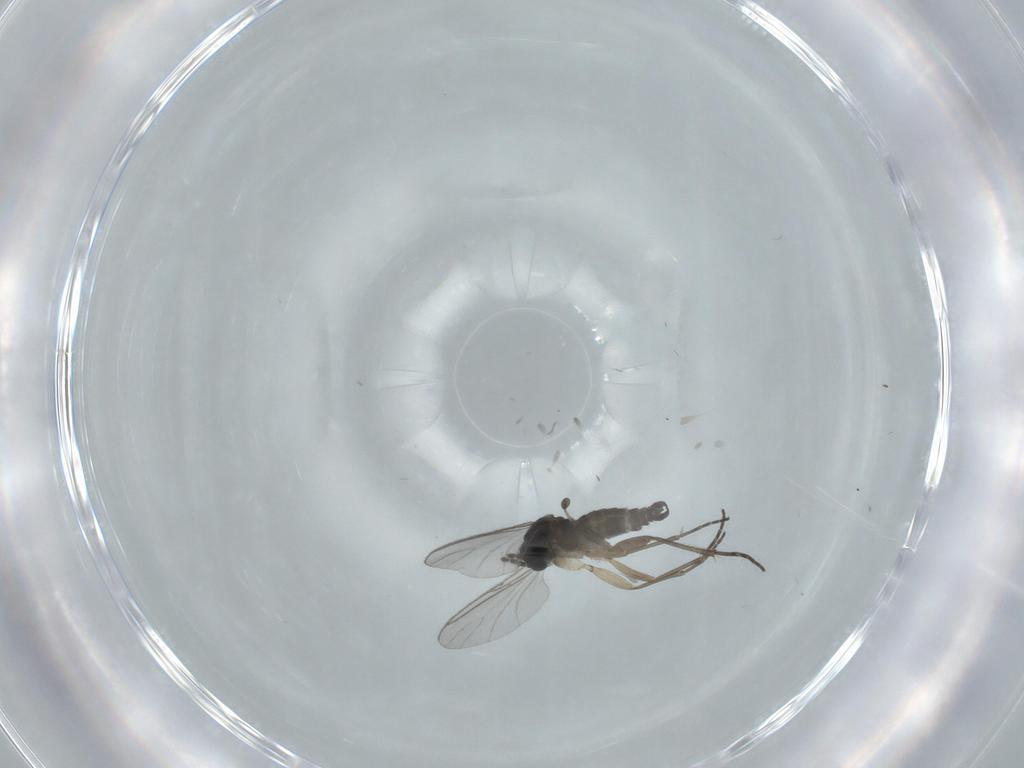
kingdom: Animalia
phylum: Arthropoda
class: Insecta
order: Diptera
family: Sciaridae
